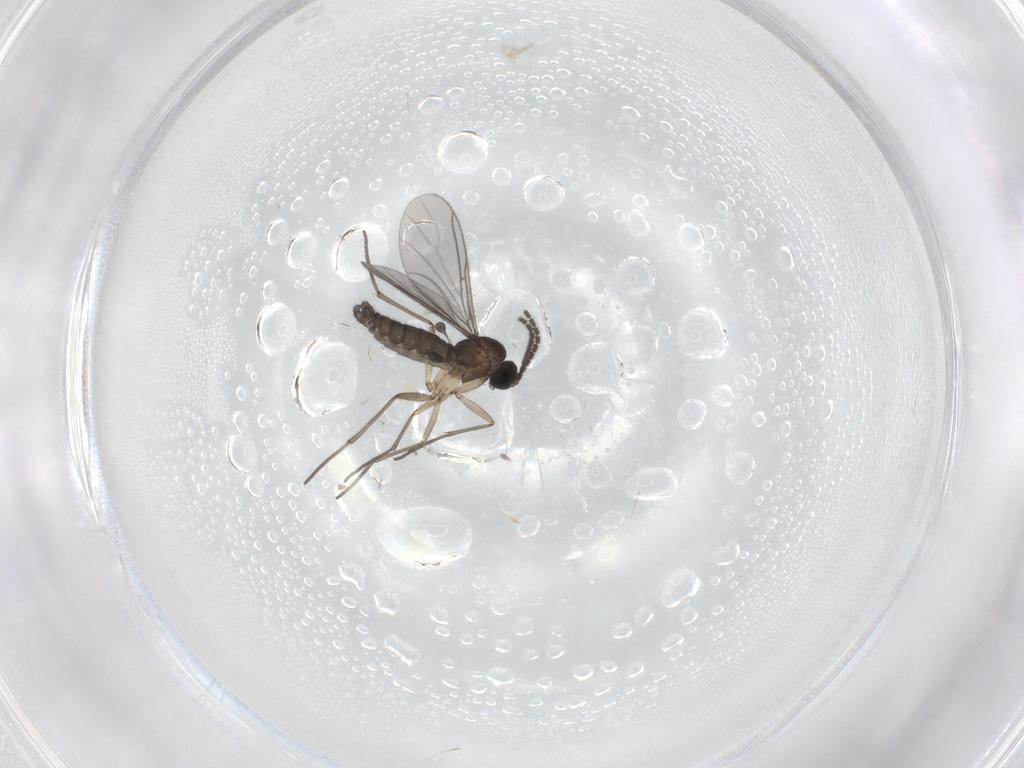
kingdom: Animalia
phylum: Arthropoda
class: Insecta
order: Diptera
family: Sciaridae
